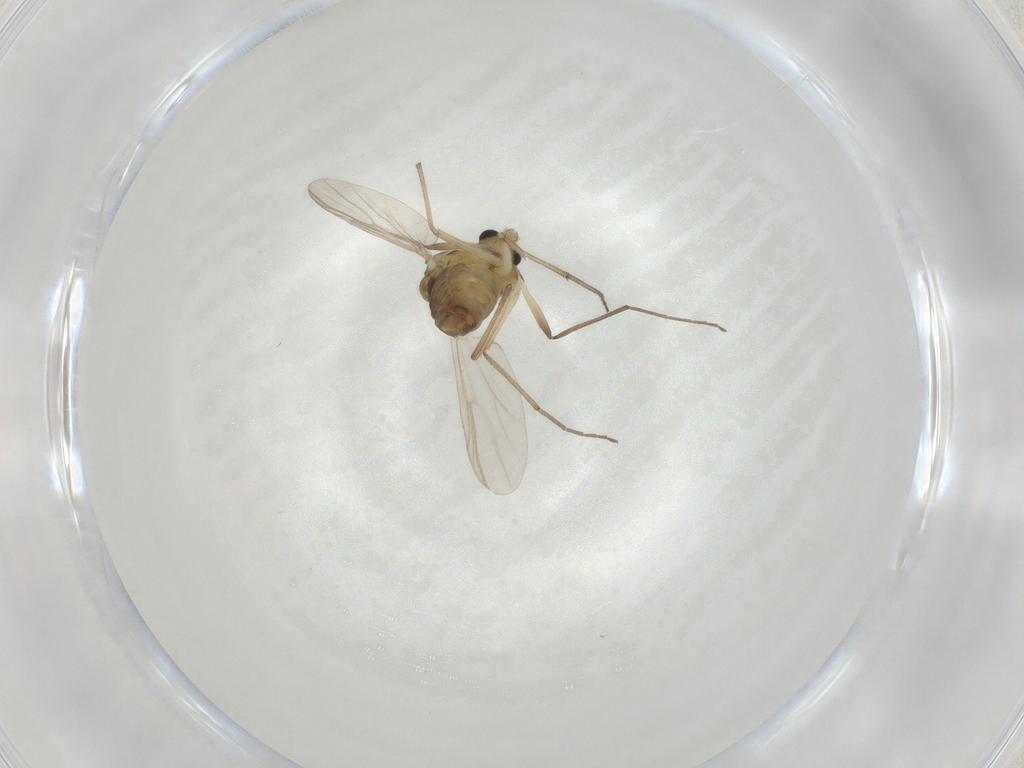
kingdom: Animalia
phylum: Arthropoda
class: Insecta
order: Diptera
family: Chironomidae
